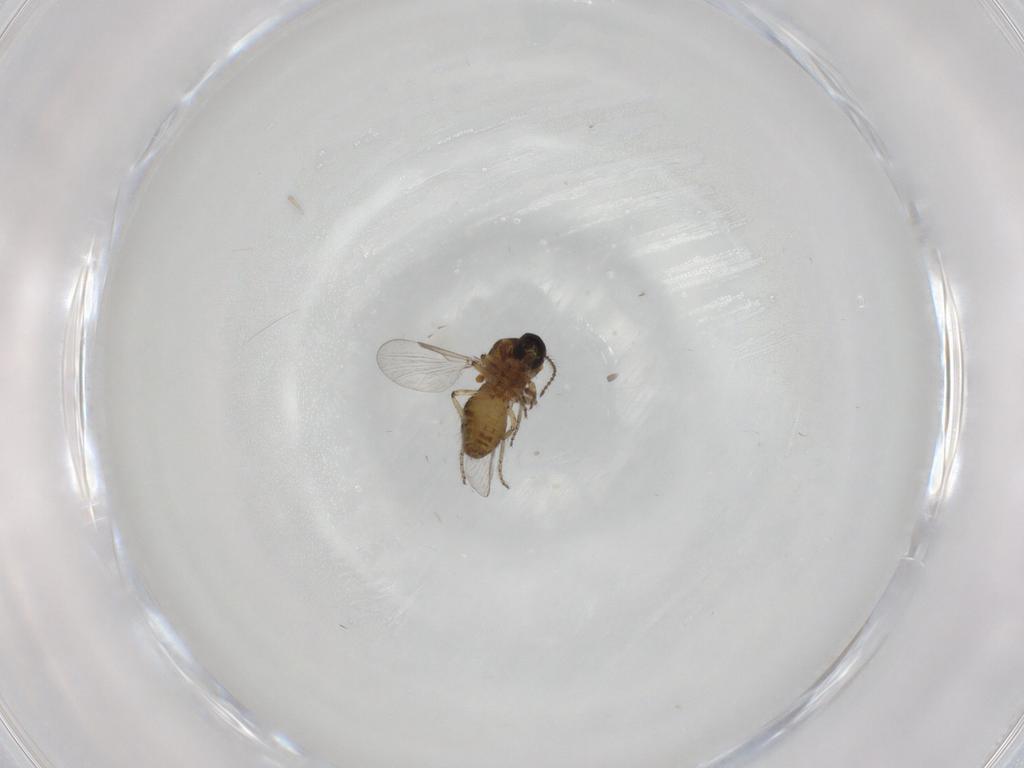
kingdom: Animalia
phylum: Arthropoda
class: Insecta
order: Diptera
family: Ceratopogonidae
